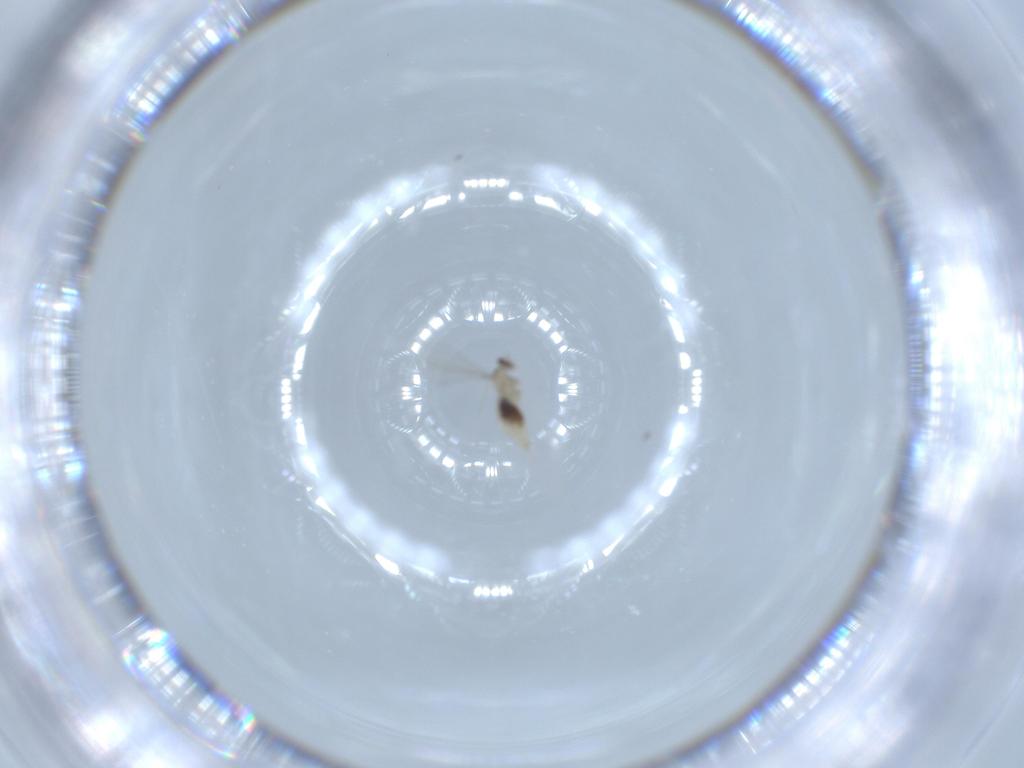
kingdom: Animalia
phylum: Arthropoda
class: Insecta
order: Diptera
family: Cecidomyiidae
